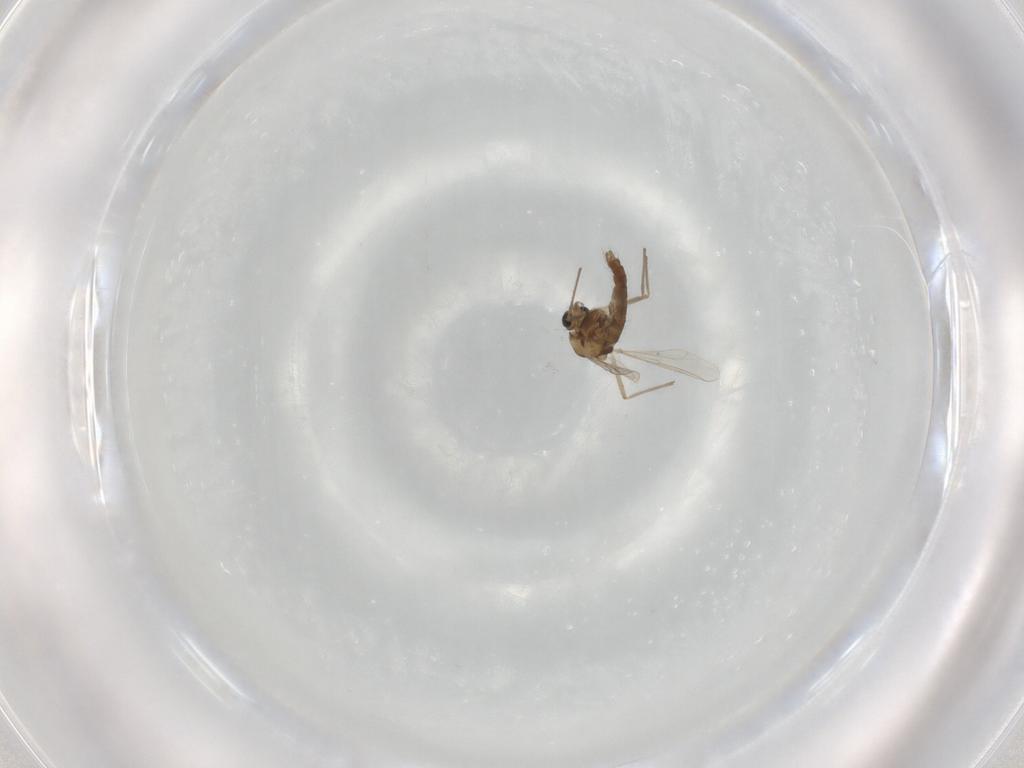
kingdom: Animalia
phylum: Arthropoda
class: Insecta
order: Diptera
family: Chironomidae
